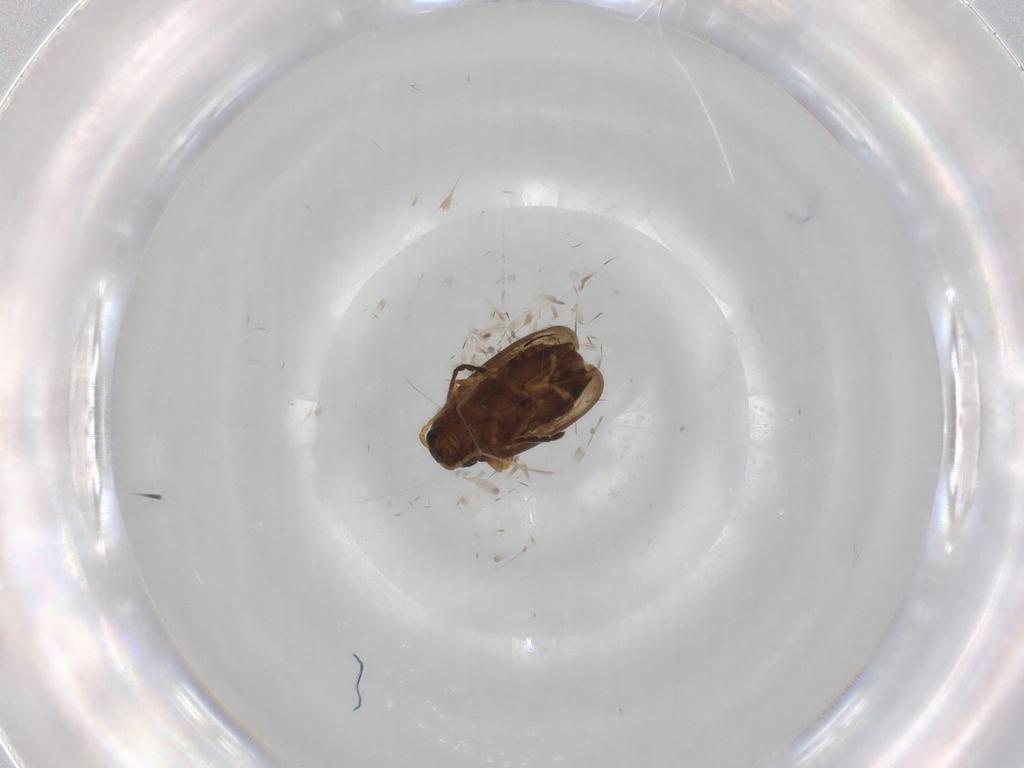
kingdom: Animalia
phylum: Arthropoda
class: Insecta
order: Coleoptera
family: Chrysomelidae
